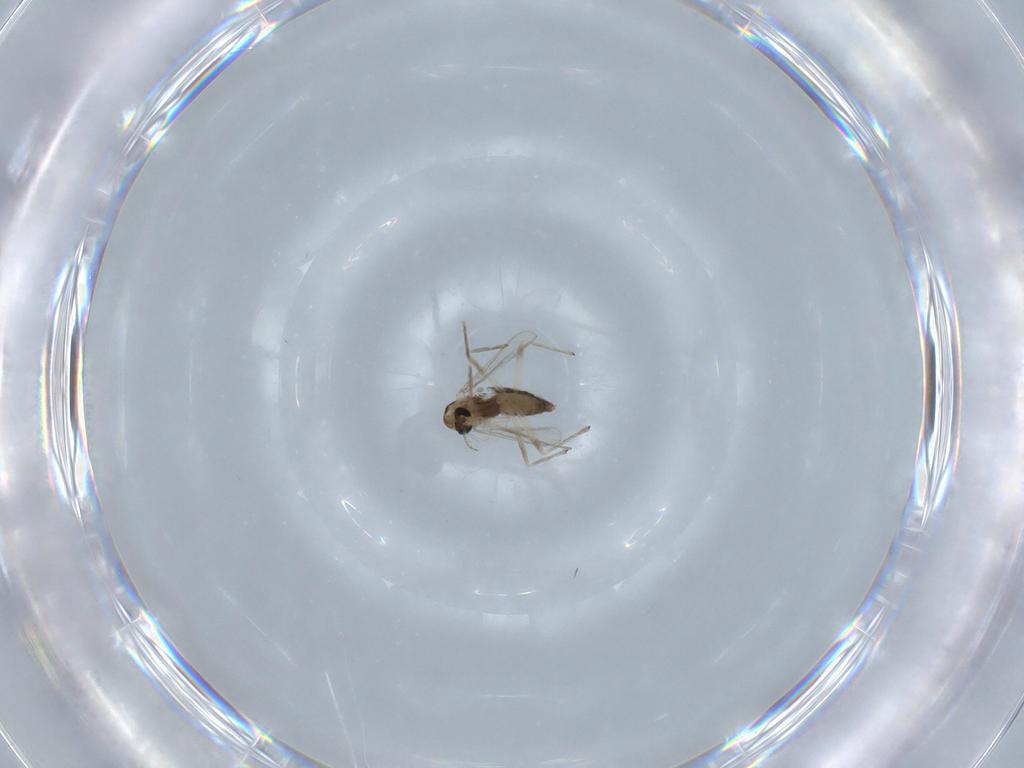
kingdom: Animalia
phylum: Arthropoda
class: Insecta
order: Diptera
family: Chironomidae
